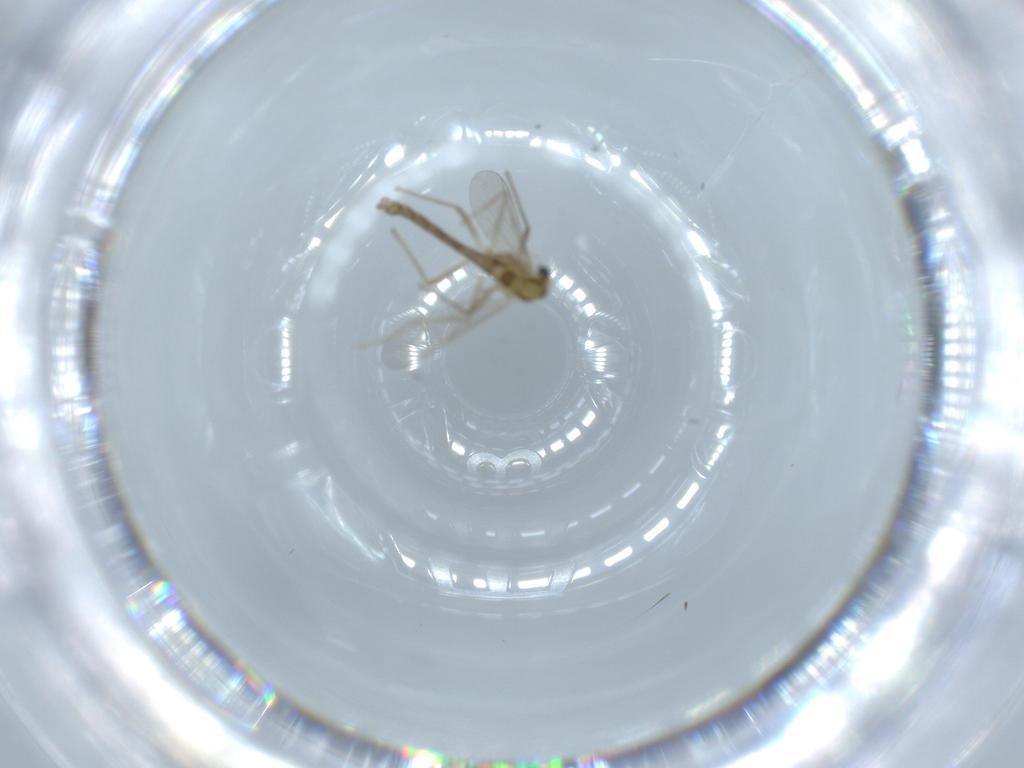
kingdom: Animalia
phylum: Arthropoda
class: Insecta
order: Diptera
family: Chironomidae
